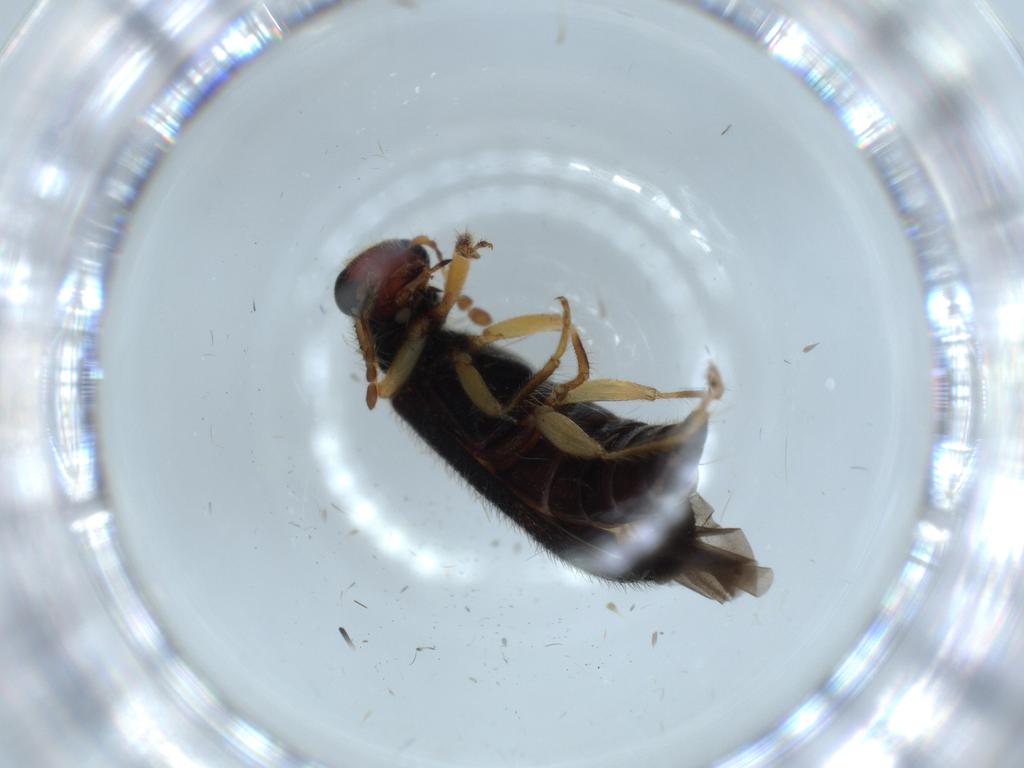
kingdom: Animalia
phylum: Arthropoda
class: Insecta
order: Coleoptera
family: Cleridae
